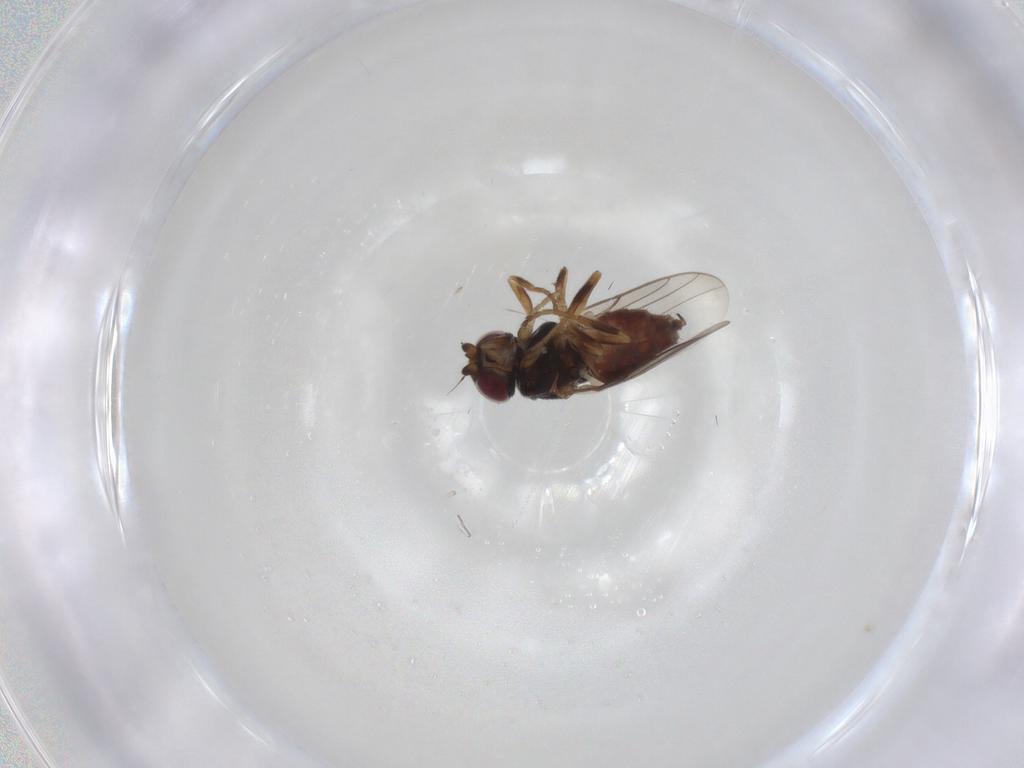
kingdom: Animalia
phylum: Arthropoda
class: Insecta
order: Diptera
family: Chloropidae
